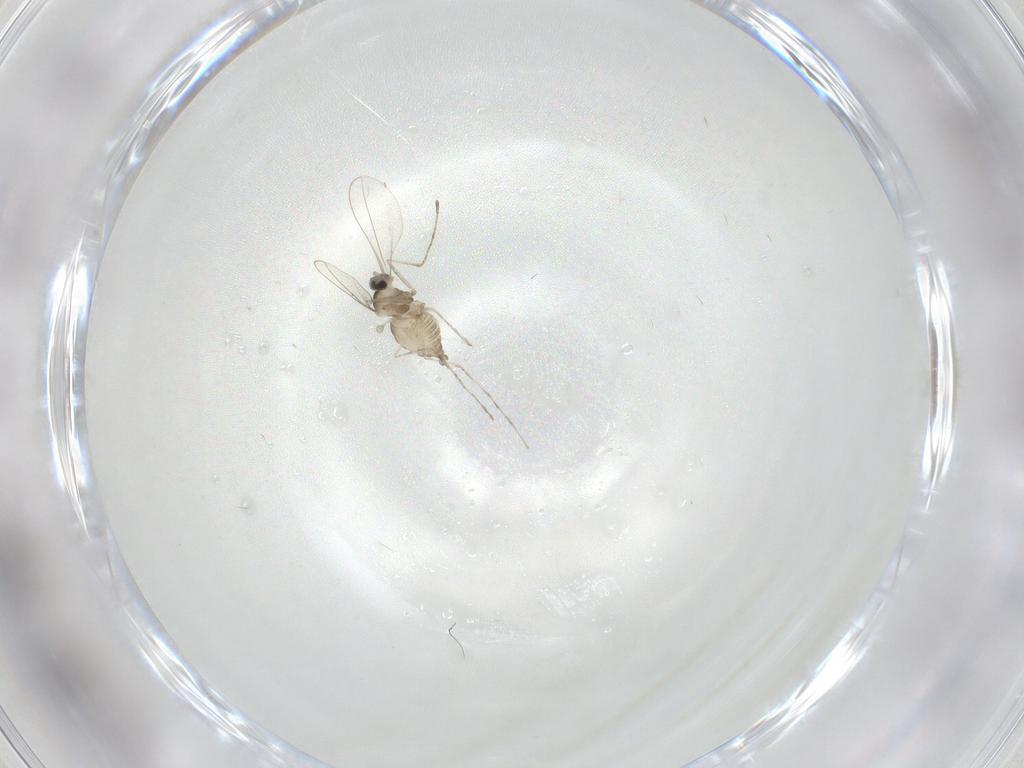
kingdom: Animalia
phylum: Arthropoda
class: Insecta
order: Diptera
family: Cecidomyiidae
